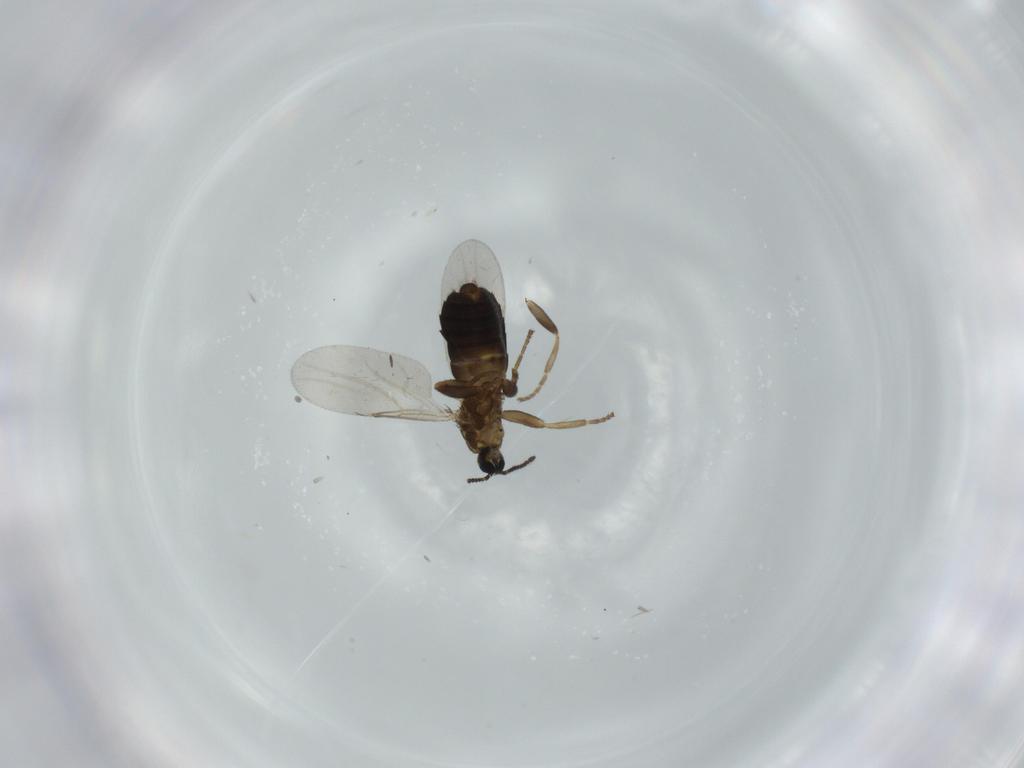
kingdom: Animalia
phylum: Arthropoda
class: Insecta
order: Diptera
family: Scatopsidae
